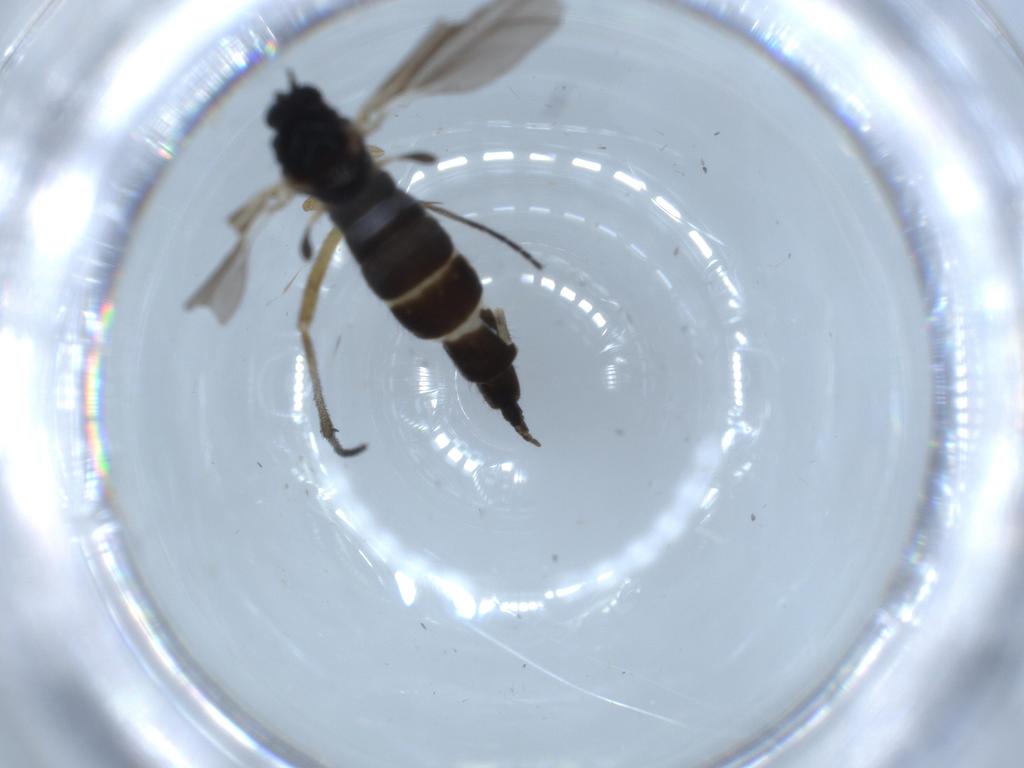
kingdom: Animalia
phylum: Arthropoda
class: Insecta
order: Diptera
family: Sciaridae
